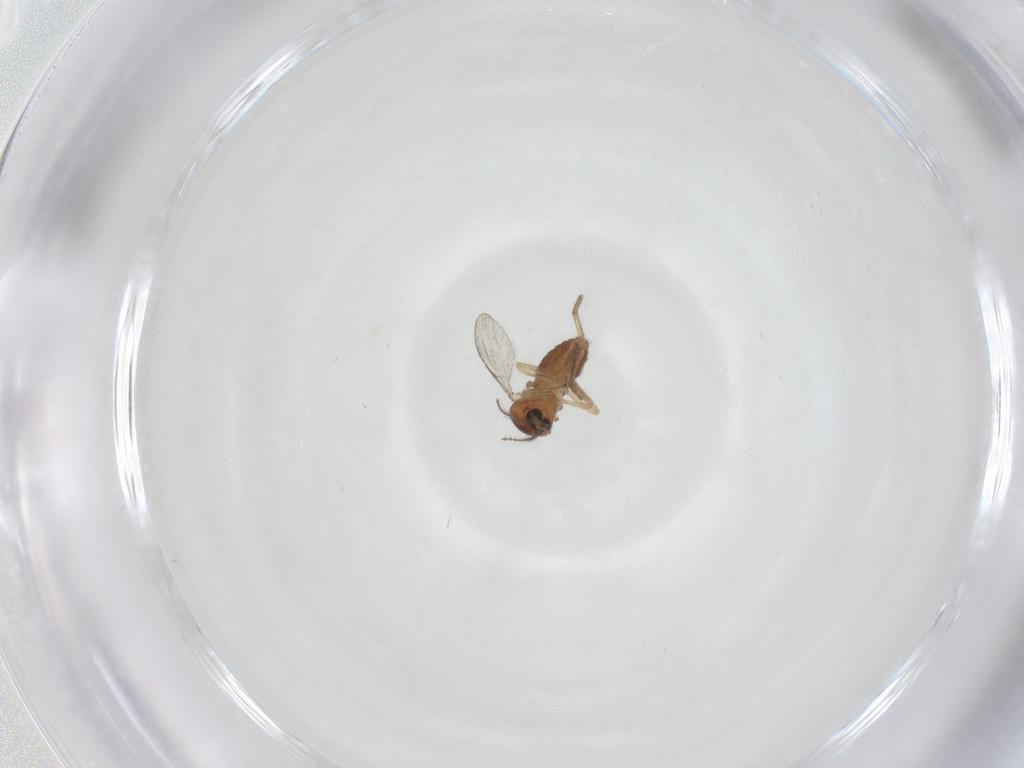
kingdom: Animalia
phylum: Arthropoda
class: Insecta
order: Diptera
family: Ceratopogonidae
